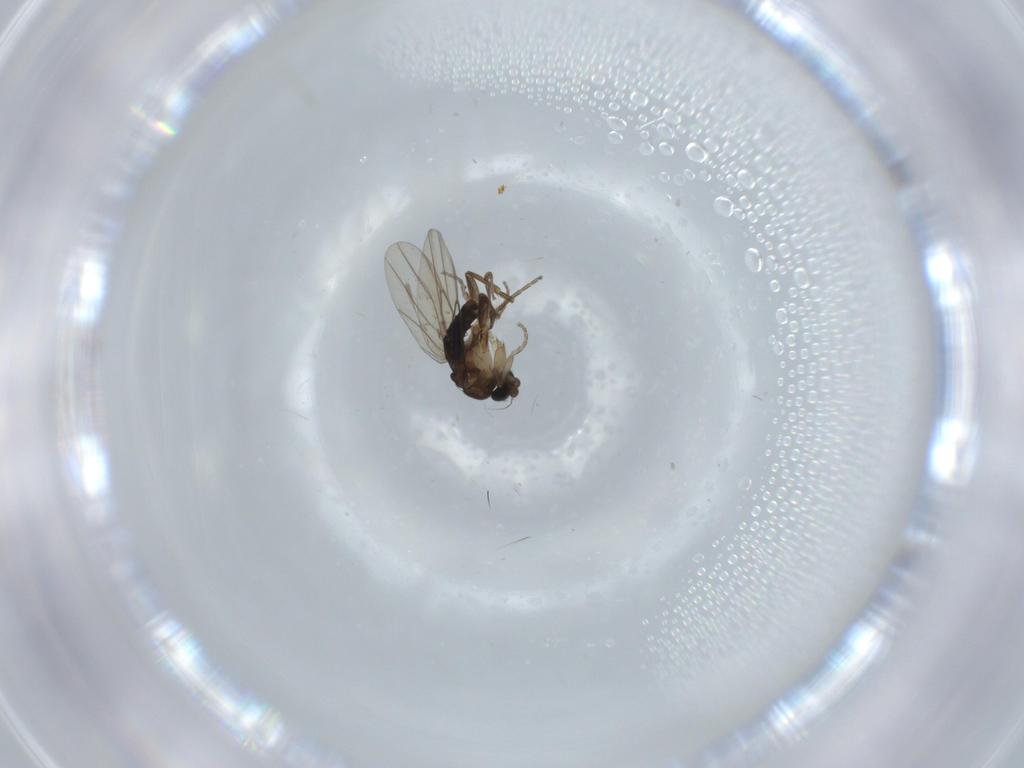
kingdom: Animalia
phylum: Arthropoda
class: Insecta
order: Diptera
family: Phoridae
